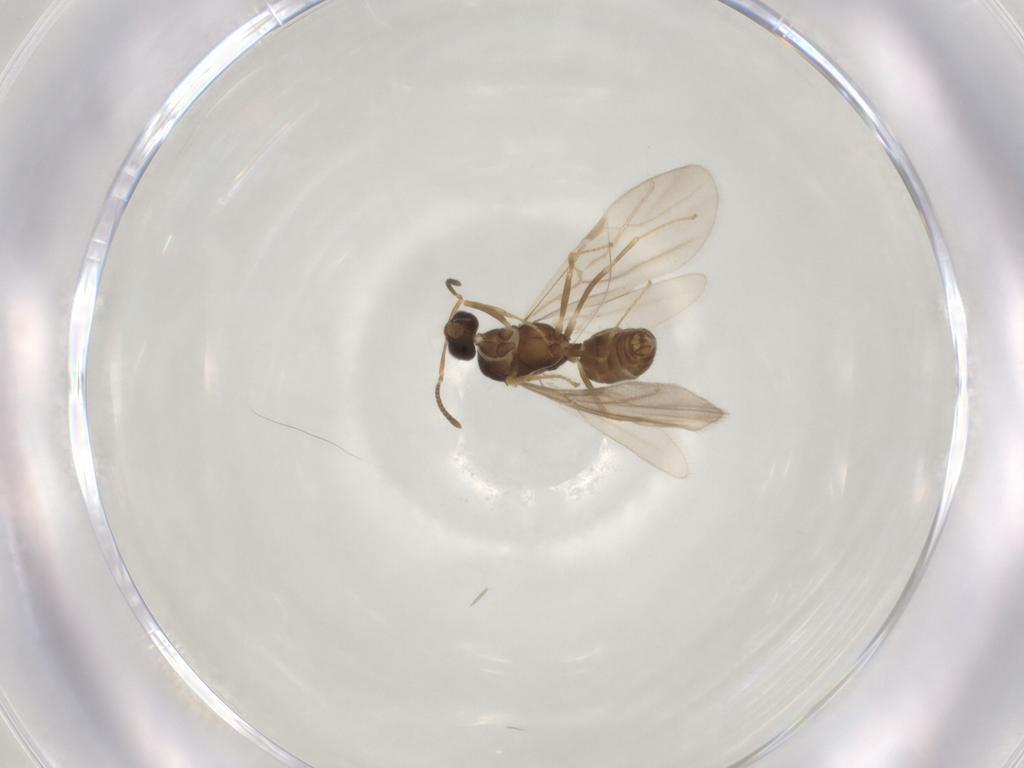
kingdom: Animalia
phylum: Arthropoda
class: Insecta
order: Hymenoptera
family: Formicidae
